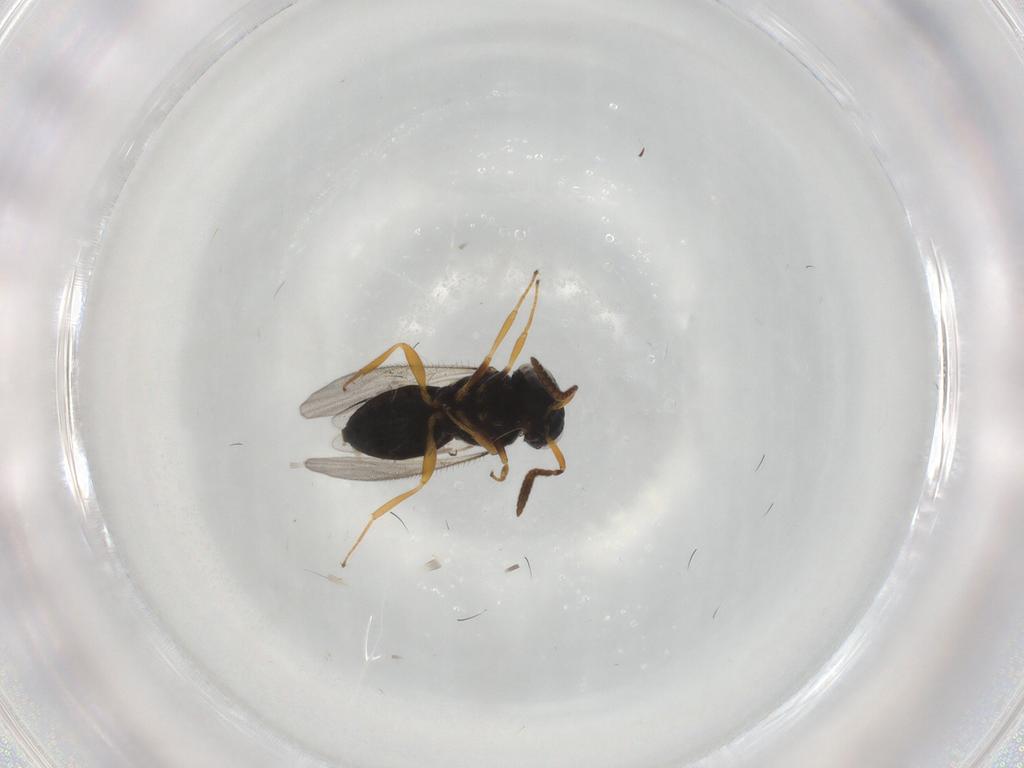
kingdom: Animalia
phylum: Arthropoda
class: Insecta
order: Hymenoptera
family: Scelionidae
